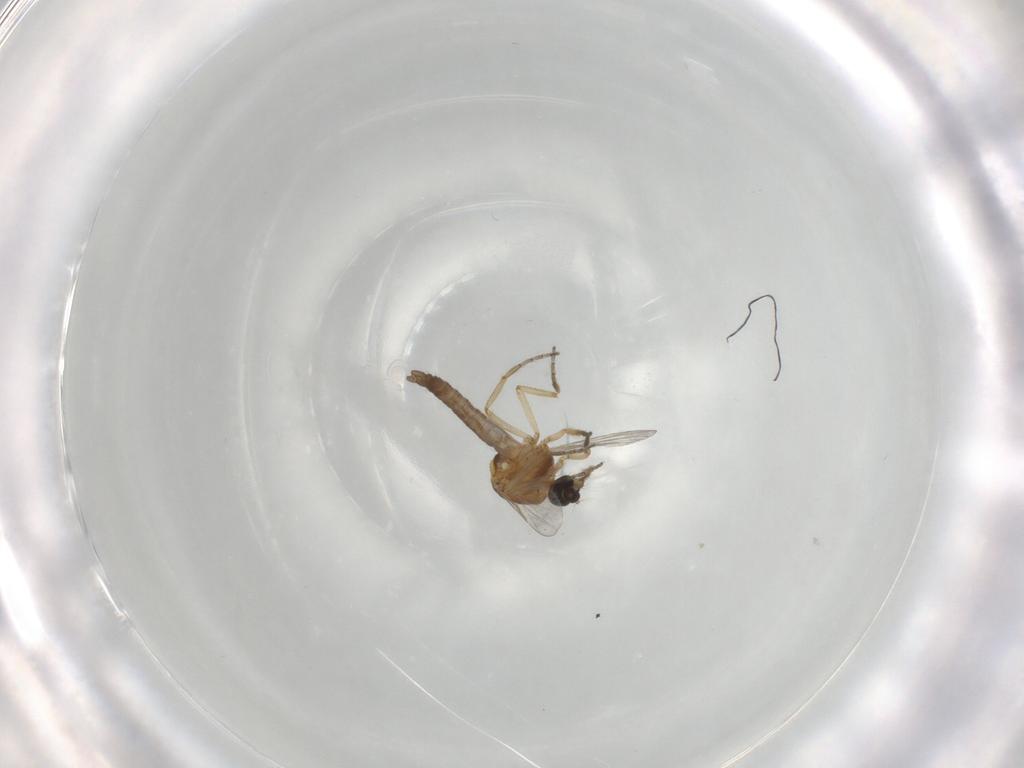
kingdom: Animalia
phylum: Arthropoda
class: Insecta
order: Diptera
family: Ceratopogonidae
